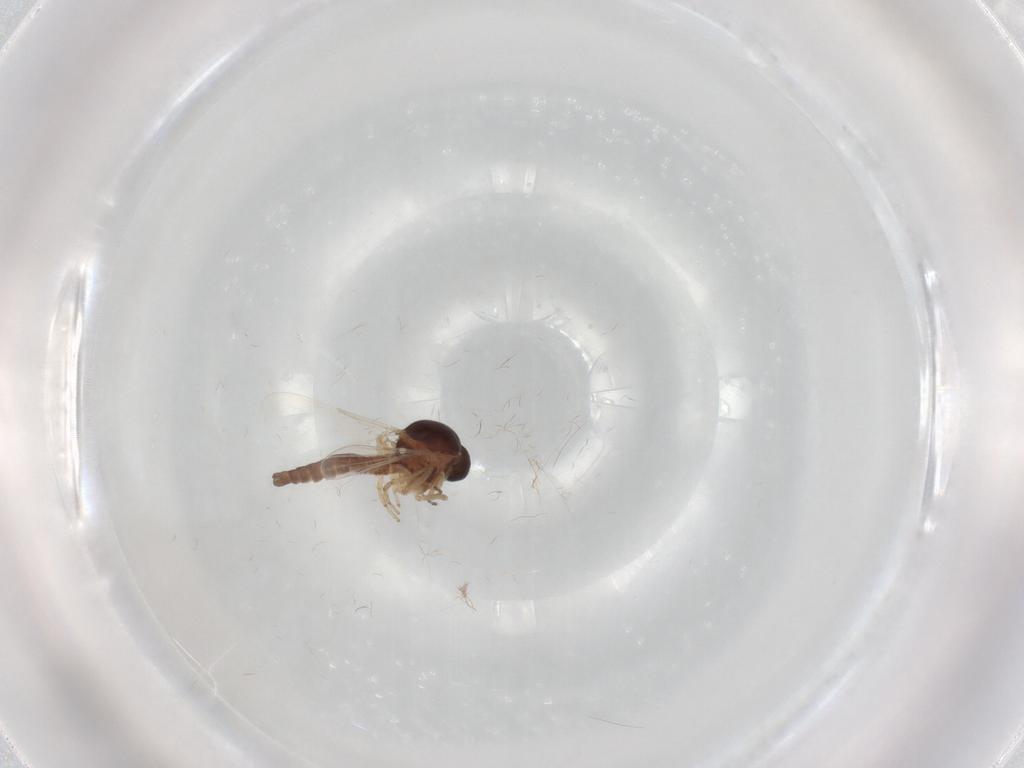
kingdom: Animalia
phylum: Arthropoda
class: Insecta
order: Diptera
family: Ceratopogonidae
